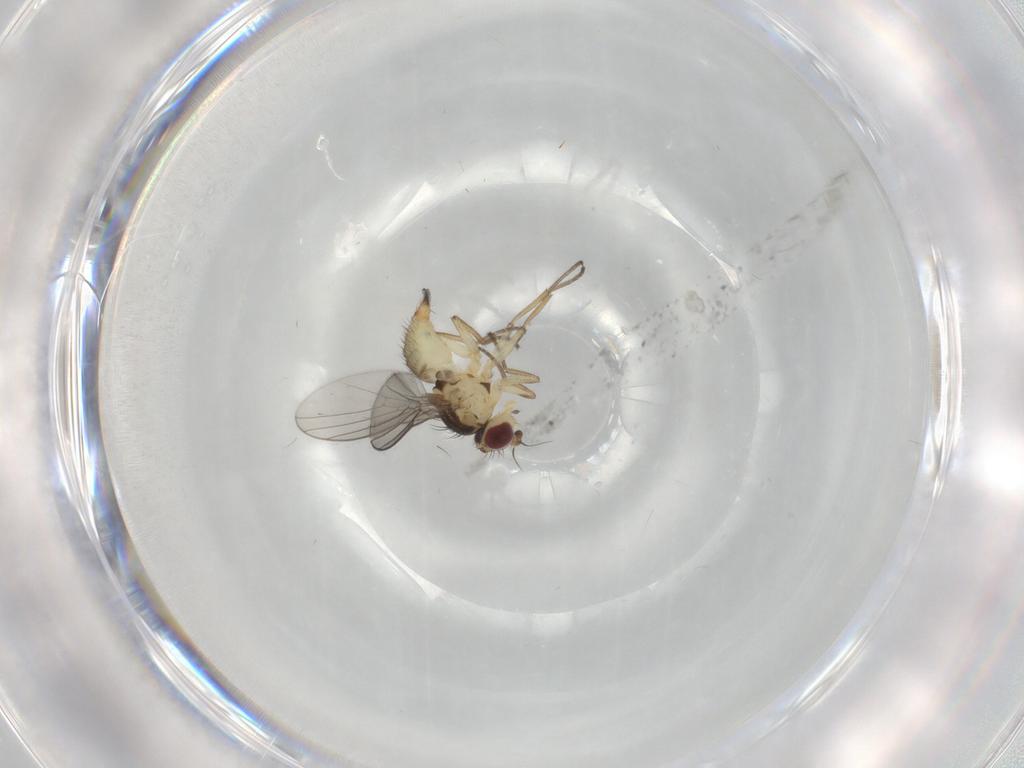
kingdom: Animalia
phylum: Arthropoda
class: Insecta
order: Diptera
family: Agromyzidae
